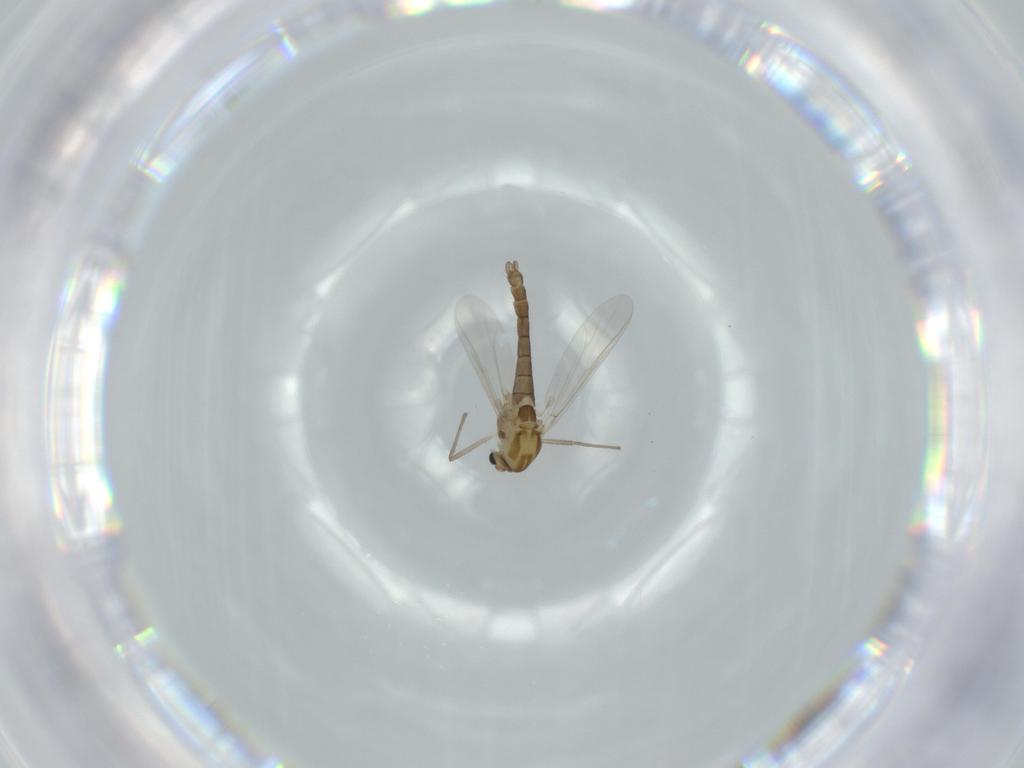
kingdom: Animalia
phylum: Arthropoda
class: Insecta
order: Diptera
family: Chironomidae
